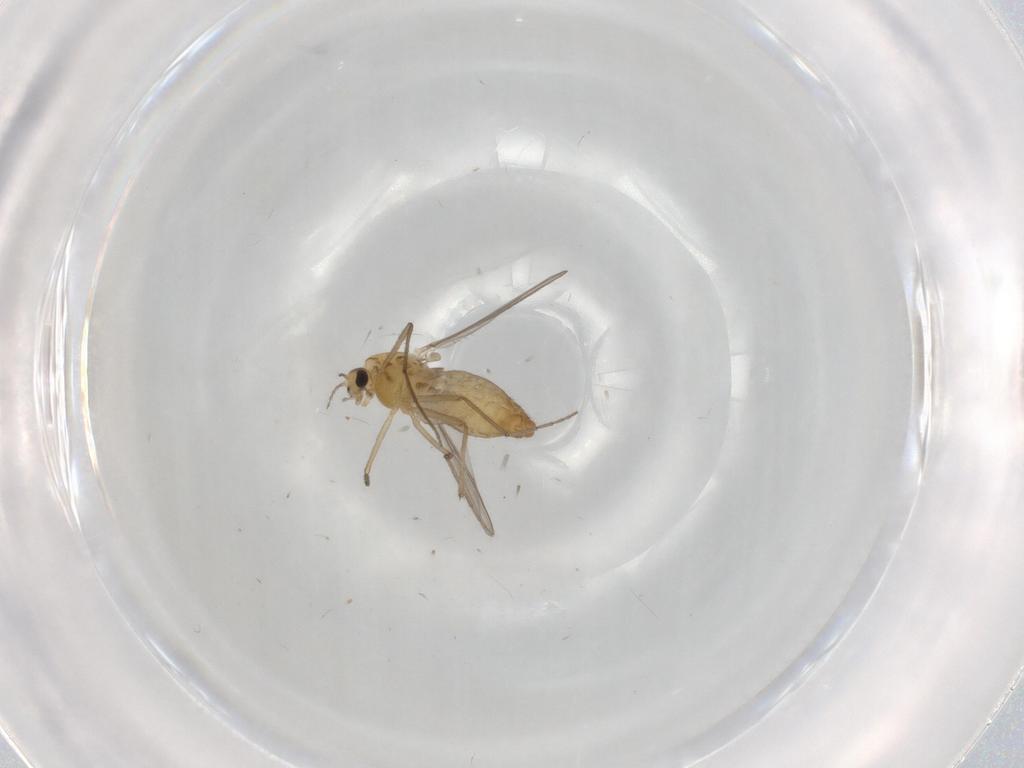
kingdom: Animalia
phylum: Arthropoda
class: Insecta
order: Diptera
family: Chironomidae
